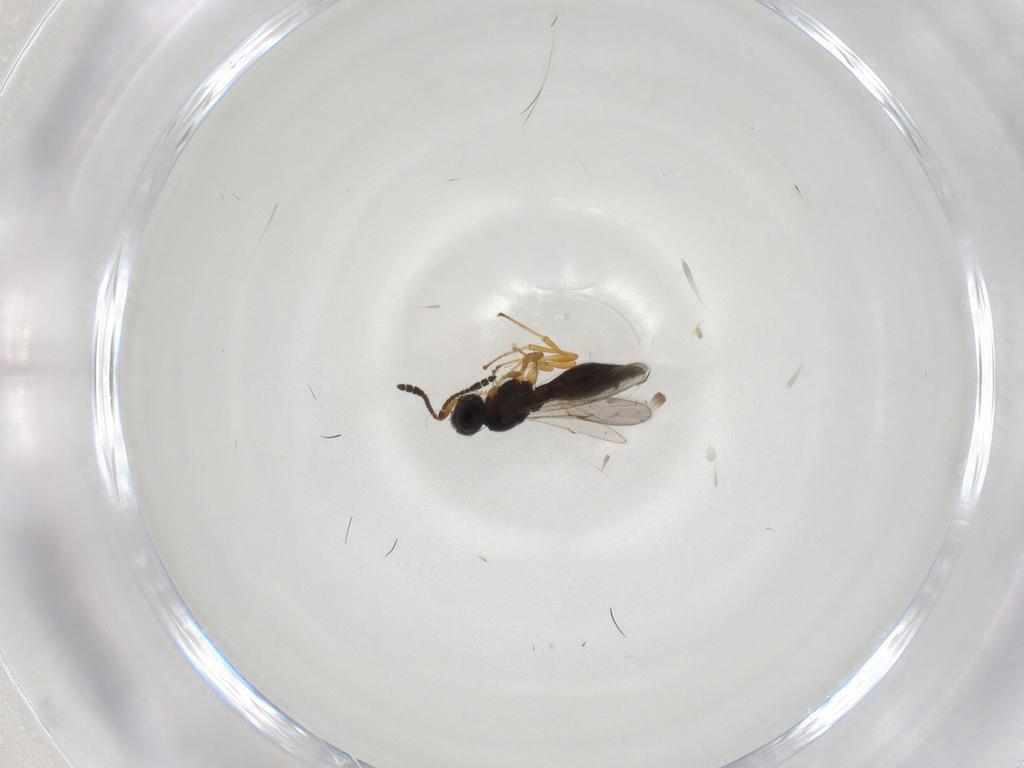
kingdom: Animalia
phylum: Arthropoda
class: Insecta
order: Hymenoptera
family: Scelionidae
